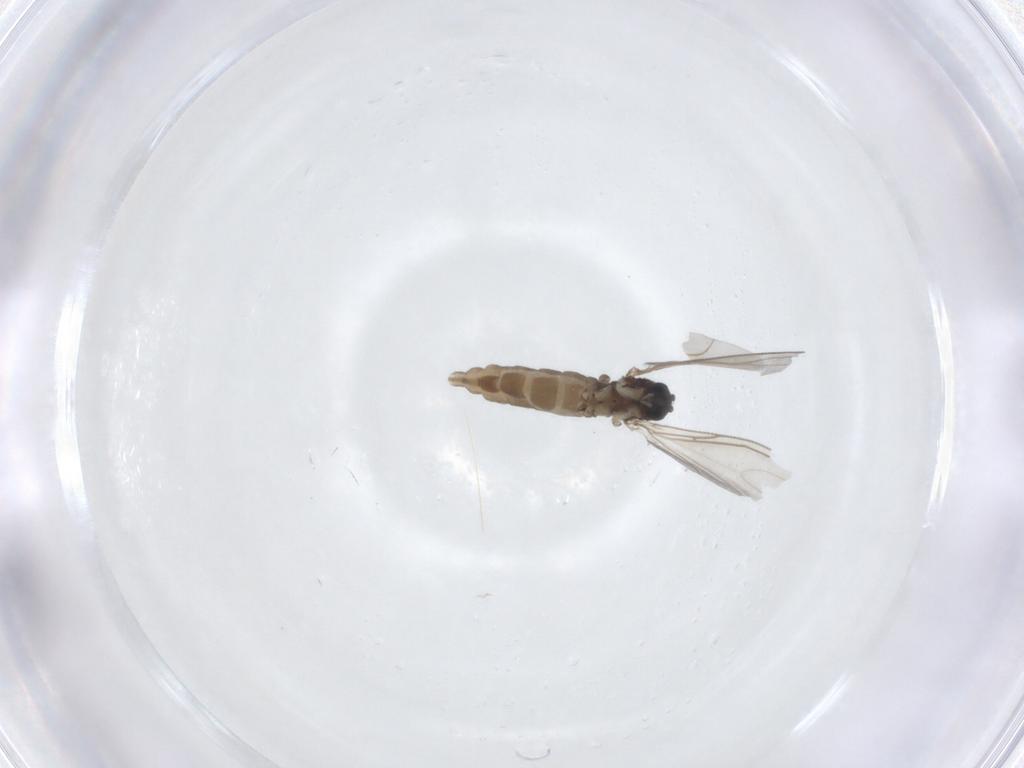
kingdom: Animalia
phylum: Arthropoda
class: Insecta
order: Diptera
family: Sciaridae
